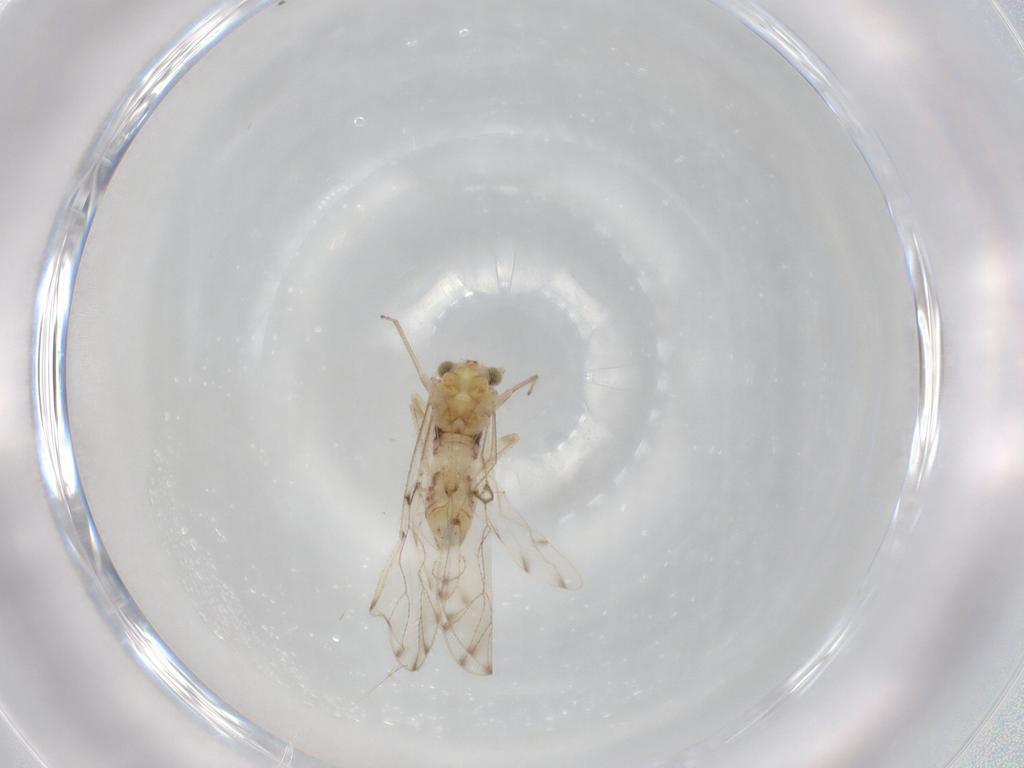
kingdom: Animalia
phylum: Arthropoda
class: Insecta
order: Psocodea
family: Ectopsocidae
